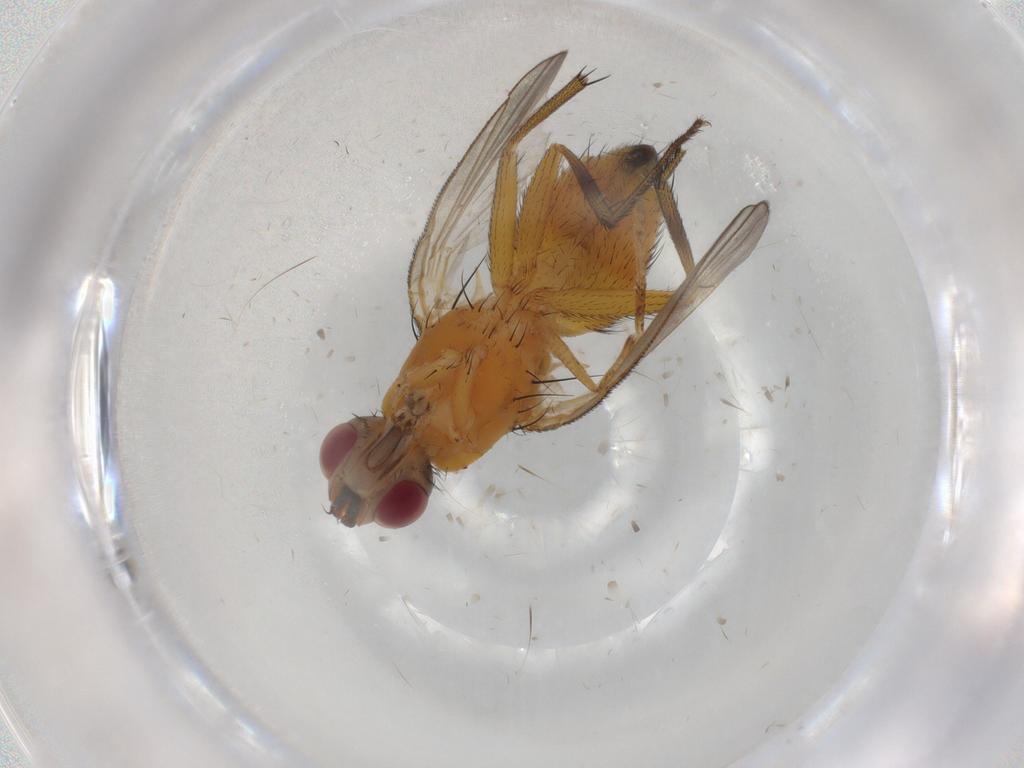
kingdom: Animalia
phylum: Arthropoda
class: Insecta
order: Diptera
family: Muscidae
